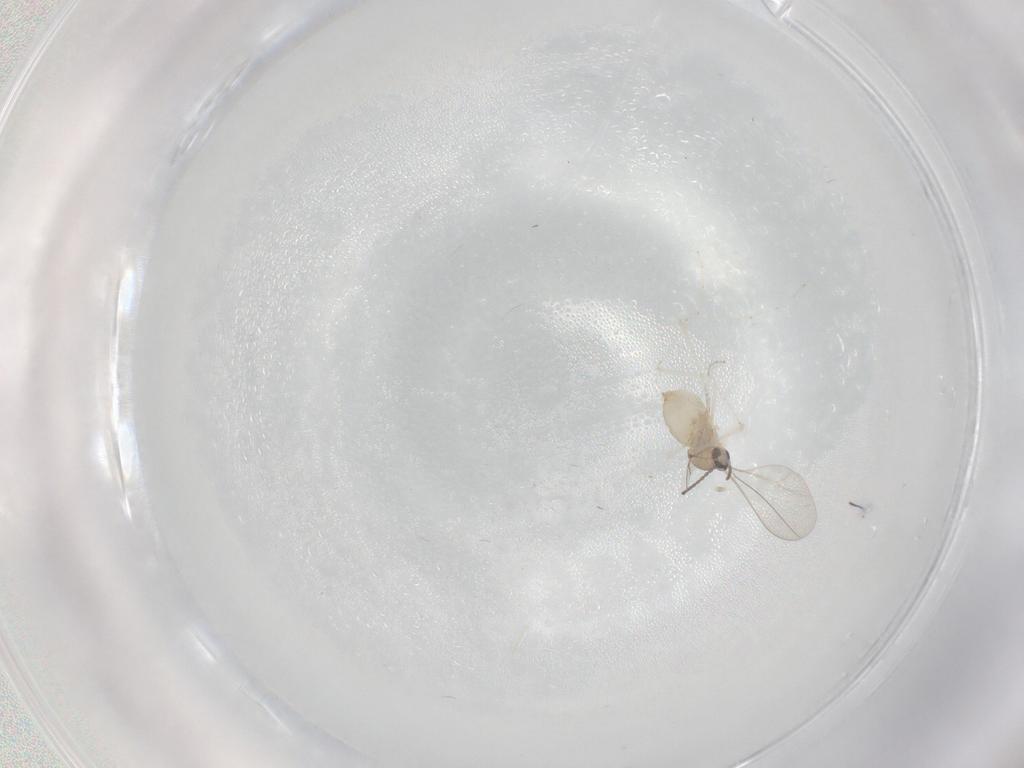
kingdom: Animalia
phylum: Arthropoda
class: Insecta
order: Diptera
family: Cecidomyiidae
